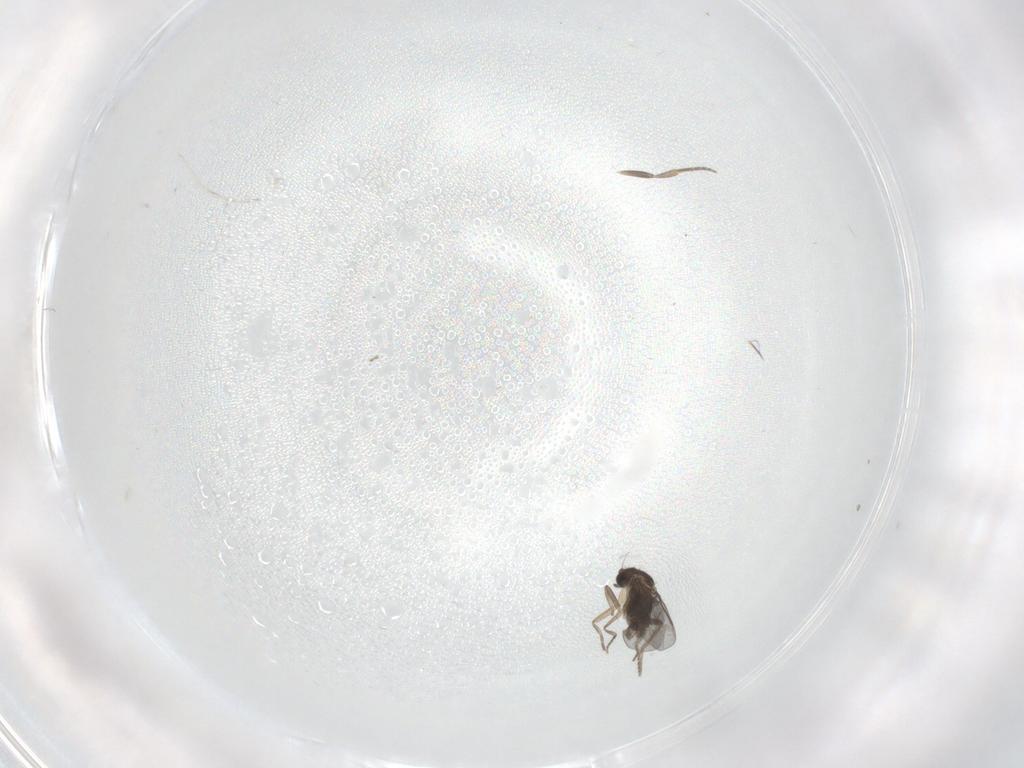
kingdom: Animalia
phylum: Arthropoda
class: Insecta
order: Diptera
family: Phoridae
